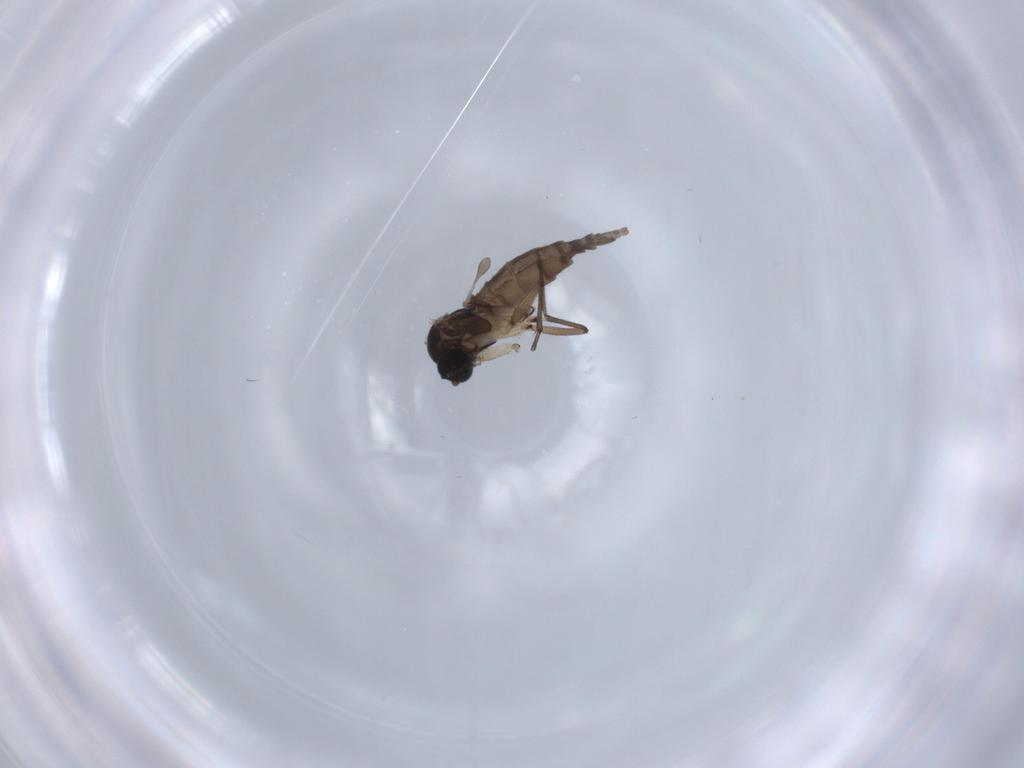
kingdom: Animalia
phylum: Arthropoda
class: Insecta
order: Diptera
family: Sciaridae
